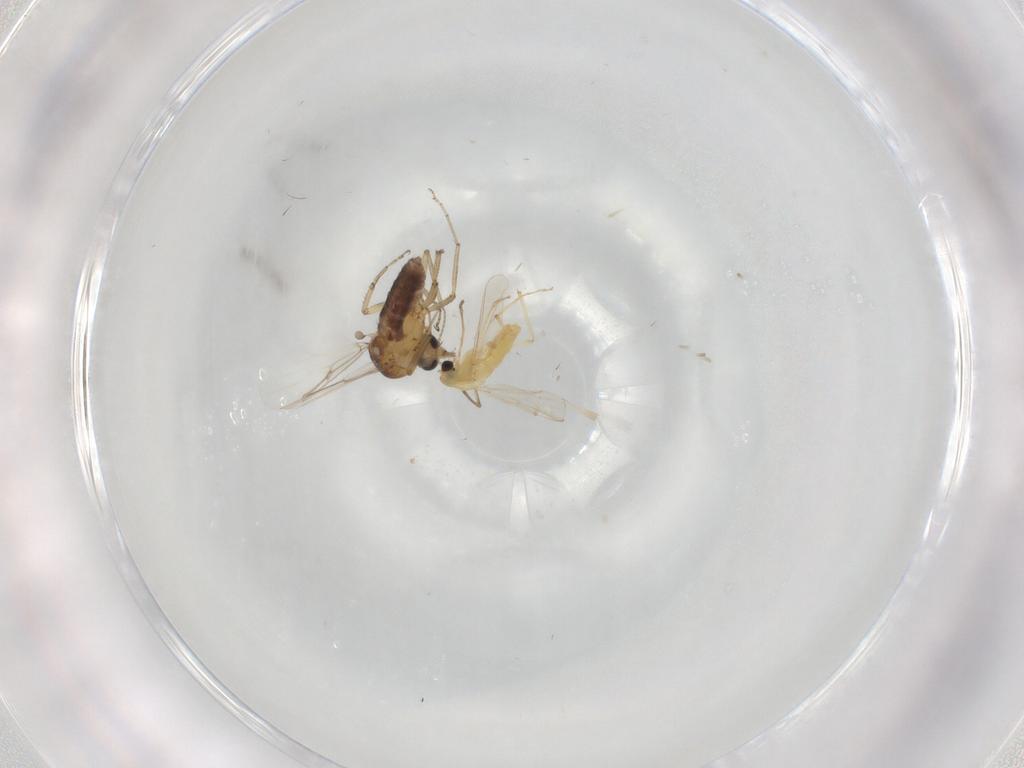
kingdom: Animalia
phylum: Arthropoda
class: Insecta
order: Diptera
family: Ceratopogonidae
